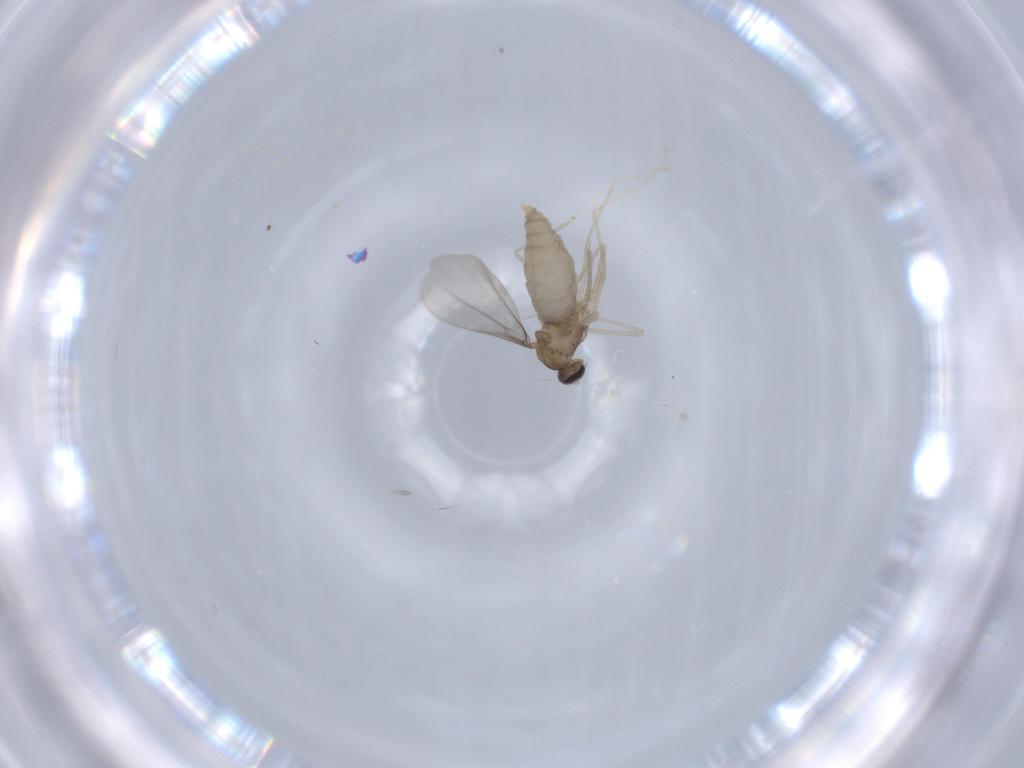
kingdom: Animalia
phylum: Arthropoda
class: Insecta
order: Diptera
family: Cecidomyiidae
